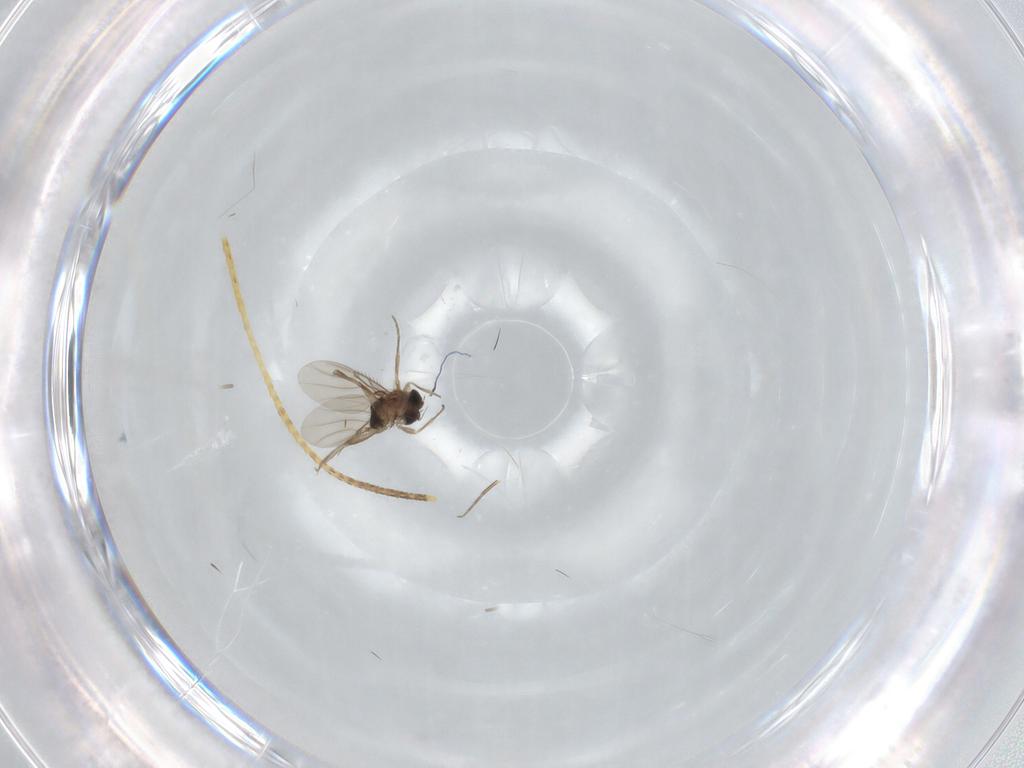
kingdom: Animalia
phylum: Arthropoda
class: Insecta
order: Diptera
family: Phoridae
